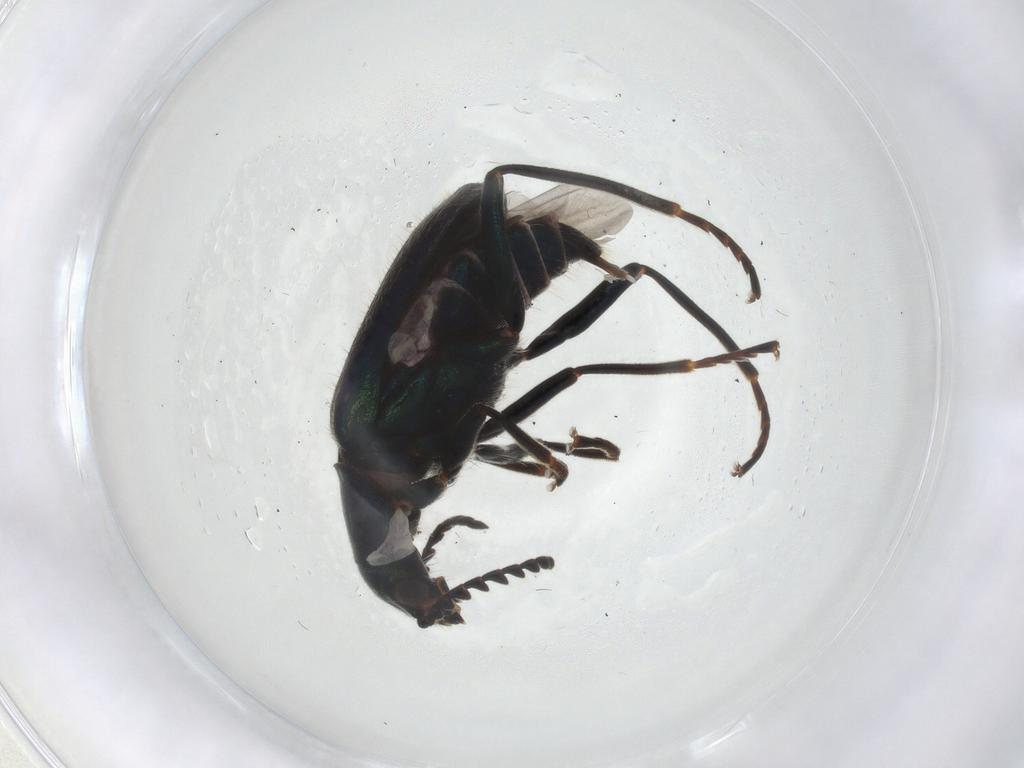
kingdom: Animalia
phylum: Arthropoda
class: Insecta
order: Coleoptera
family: Melyridae
